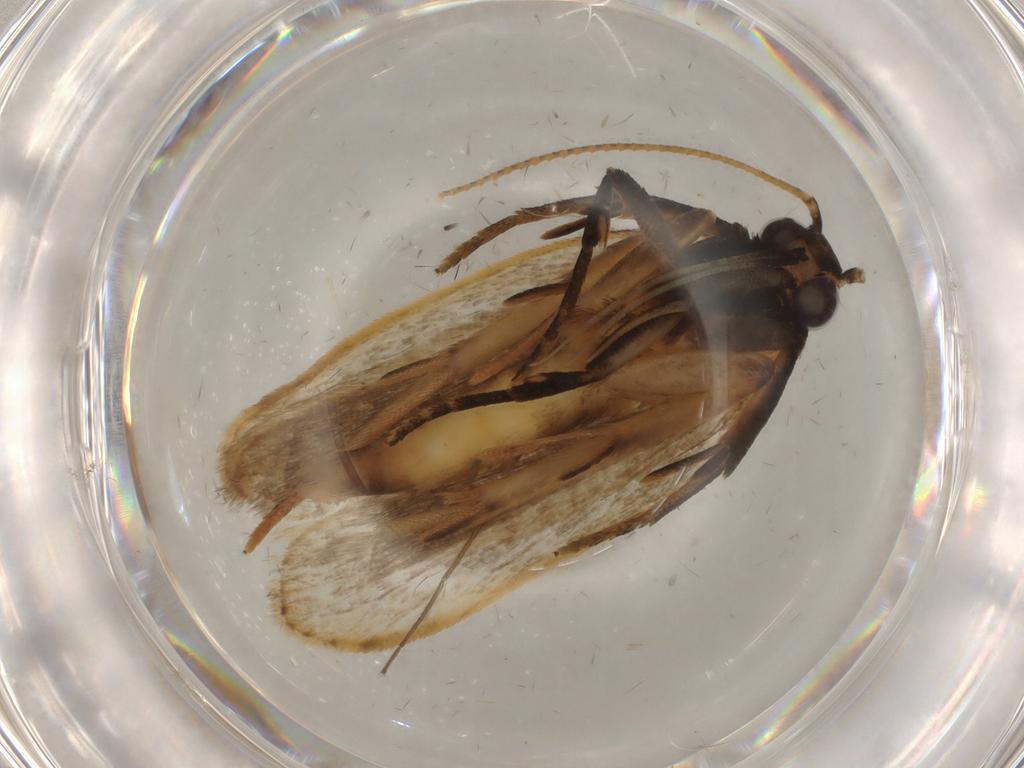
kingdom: Animalia
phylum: Arthropoda
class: Insecta
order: Lepidoptera
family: Gelechiidae
